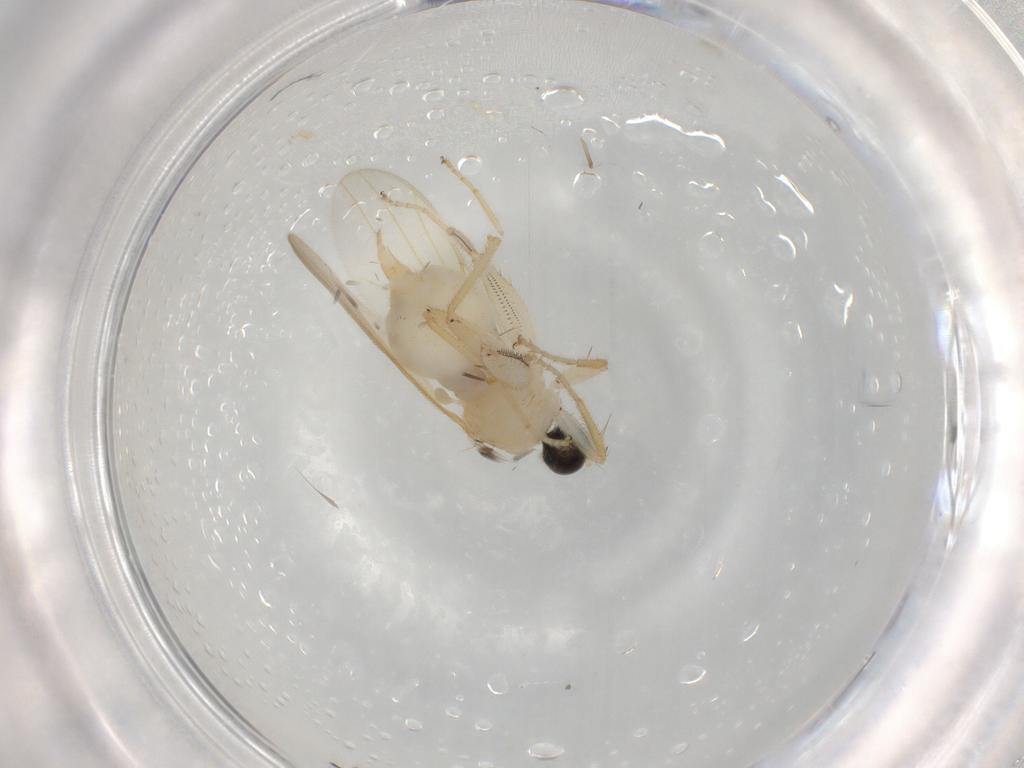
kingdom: Animalia
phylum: Arthropoda
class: Insecta
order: Diptera
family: Hybotidae
